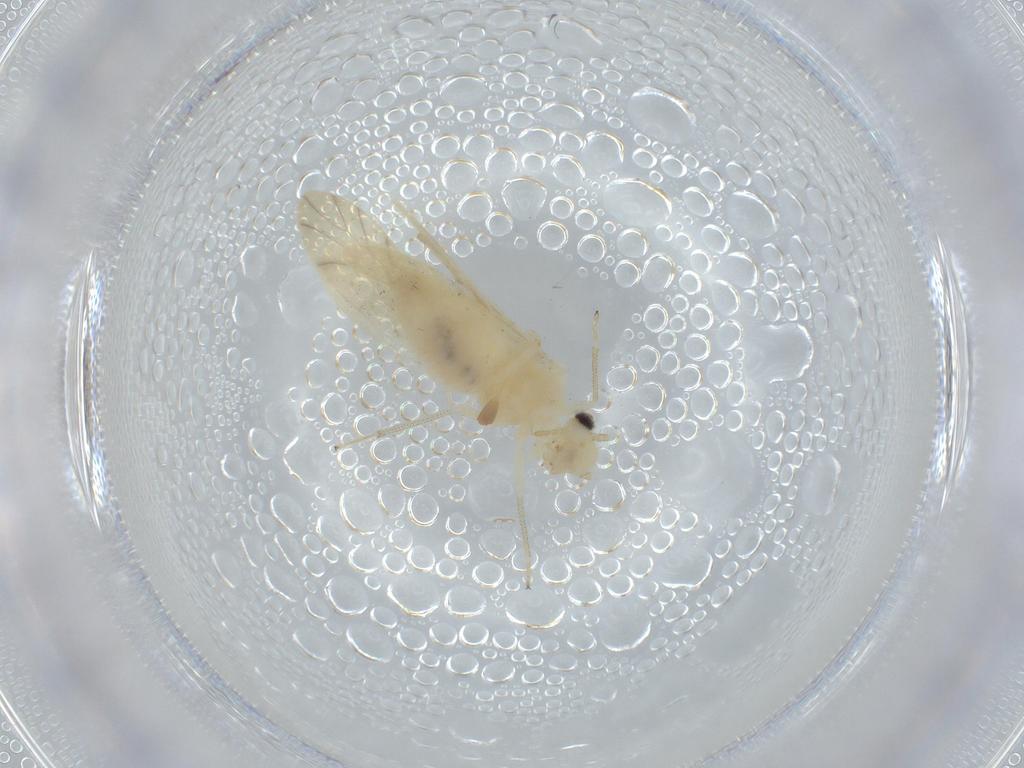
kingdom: Animalia
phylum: Arthropoda
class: Insecta
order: Psocodea
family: Caeciliusidae
